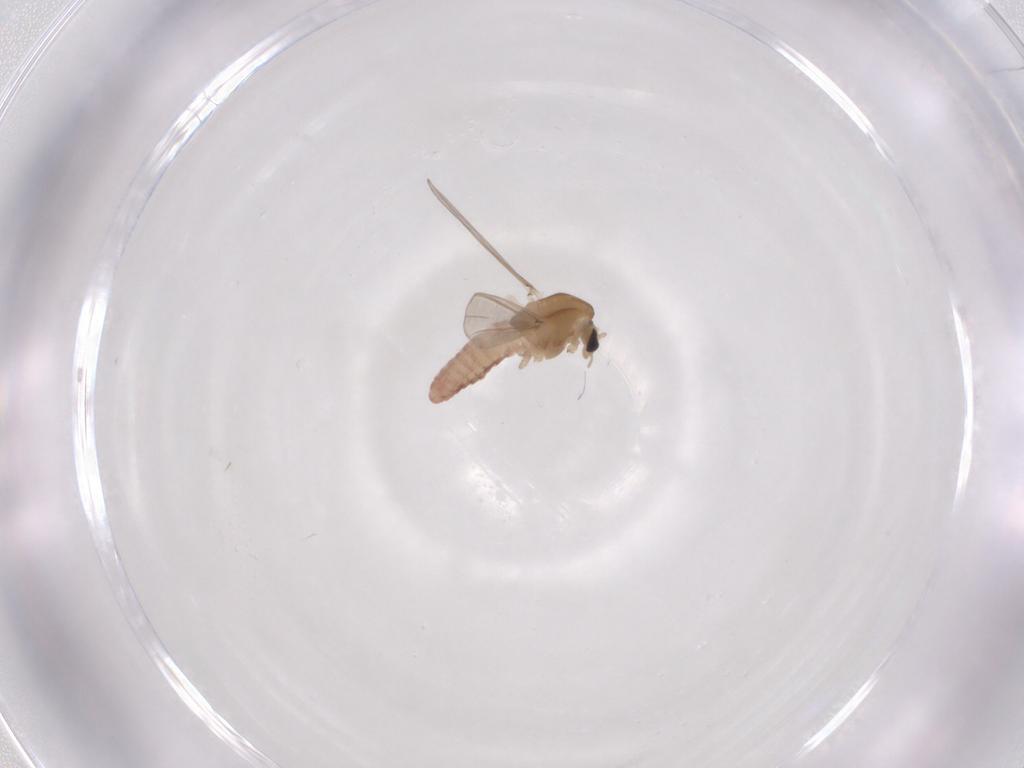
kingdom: Animalia
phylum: Arthropoda
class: Insecta
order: Diptera
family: Chironomidae
